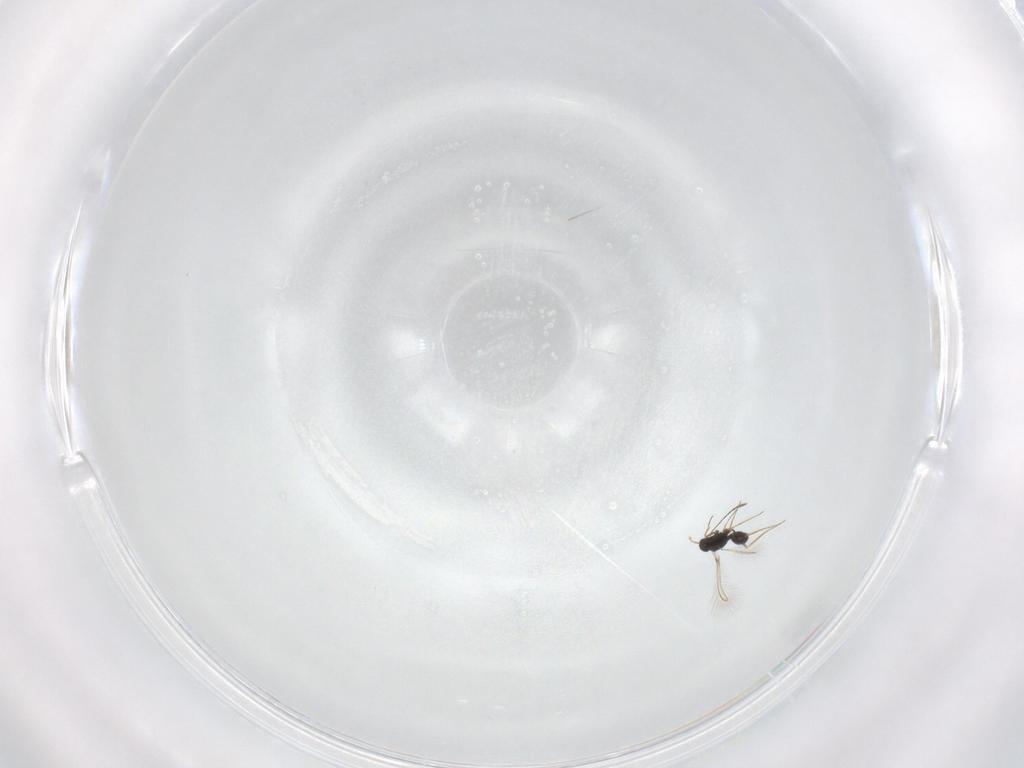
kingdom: Animalia
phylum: Arthropoda
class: Insecta
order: Hymenoptera
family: Mymaridae
